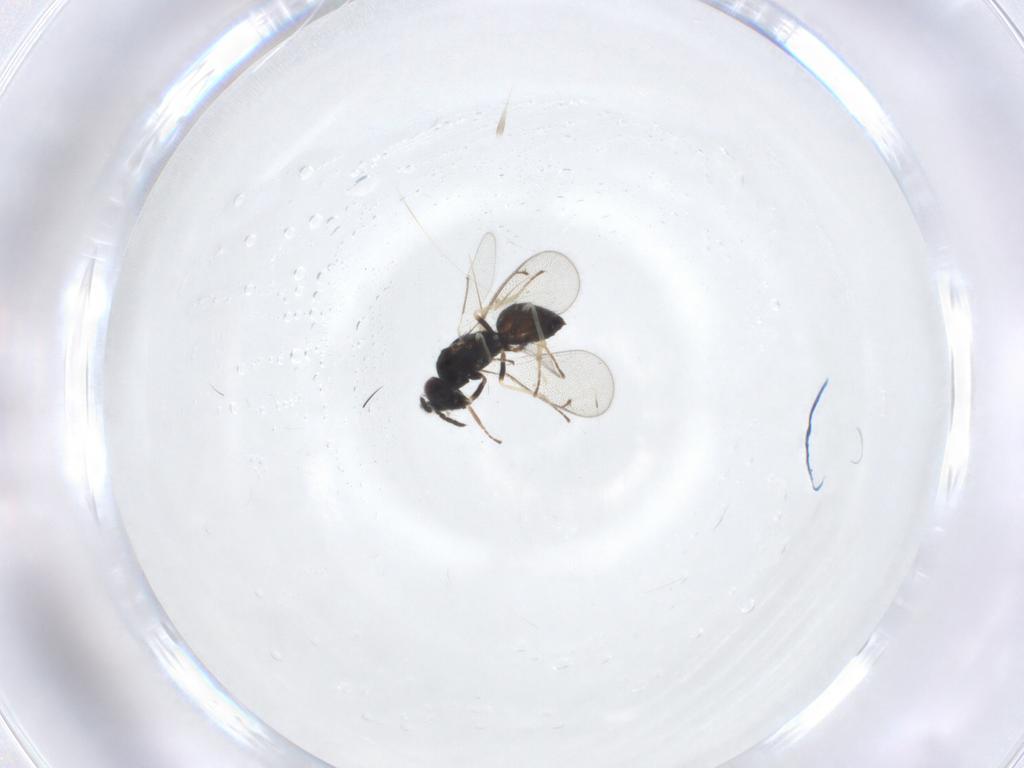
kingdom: Animalia
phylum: Arthropoda
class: Insecta
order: Hymenoptera
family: Eulophidae
